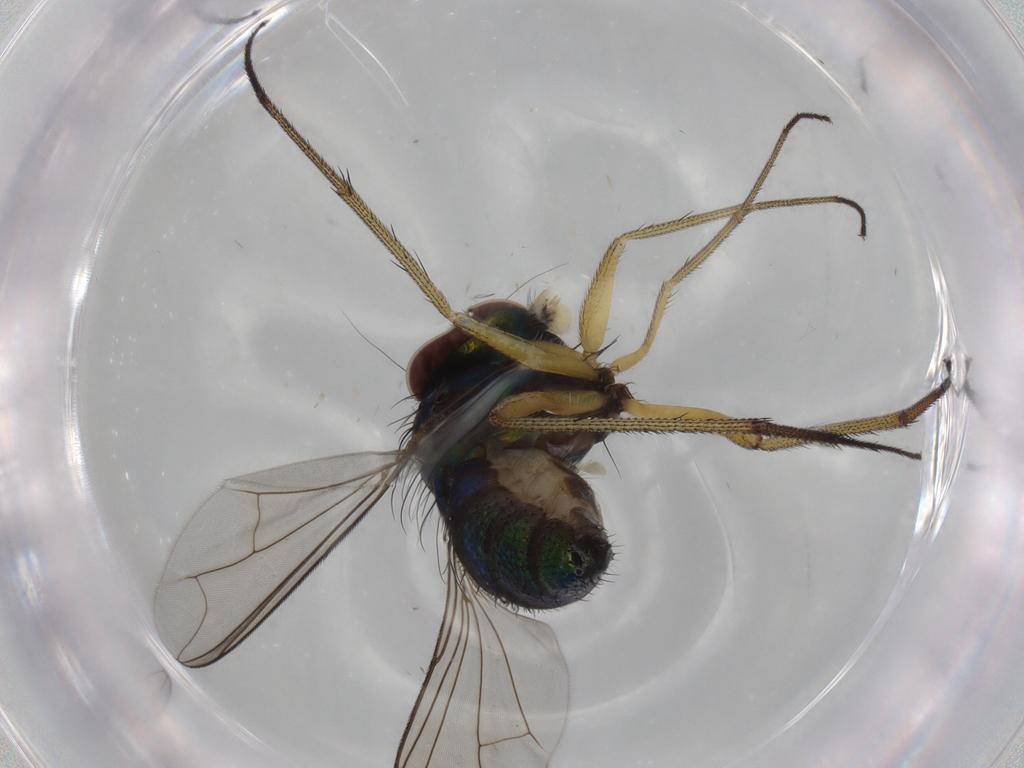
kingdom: Animalia
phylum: Arthropoda
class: Insecta
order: Diptera
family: Dolichopodidae
